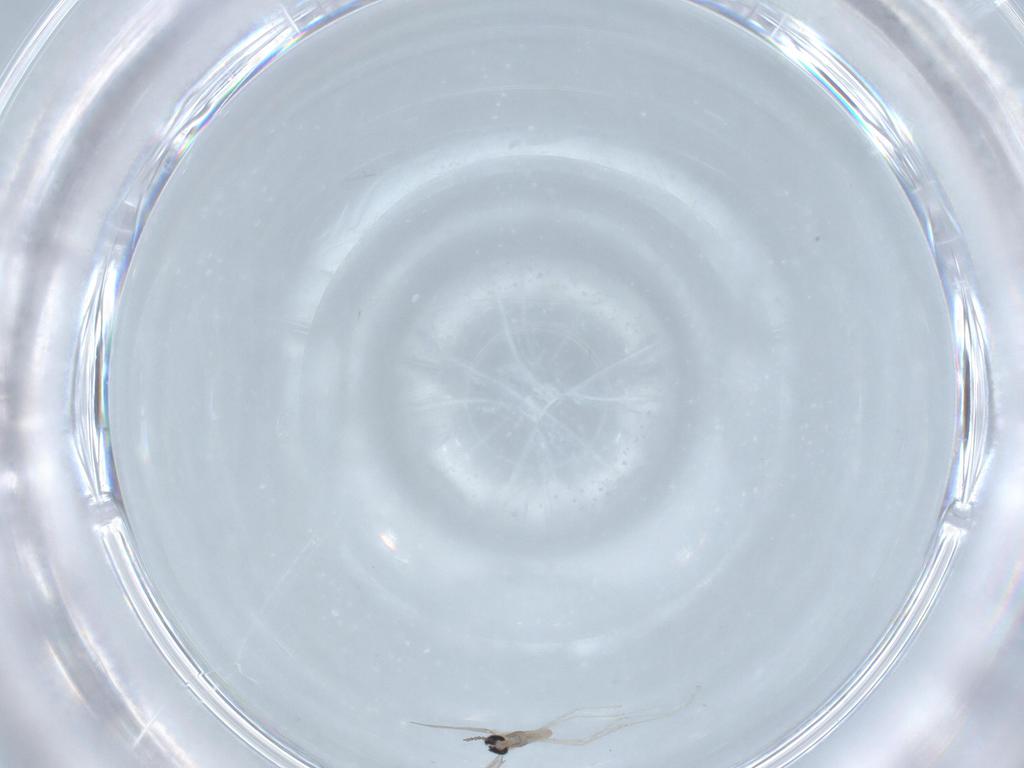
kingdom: Animalia
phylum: Arthropoda
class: Insecta
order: Diptera
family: Cecidomyiidae
